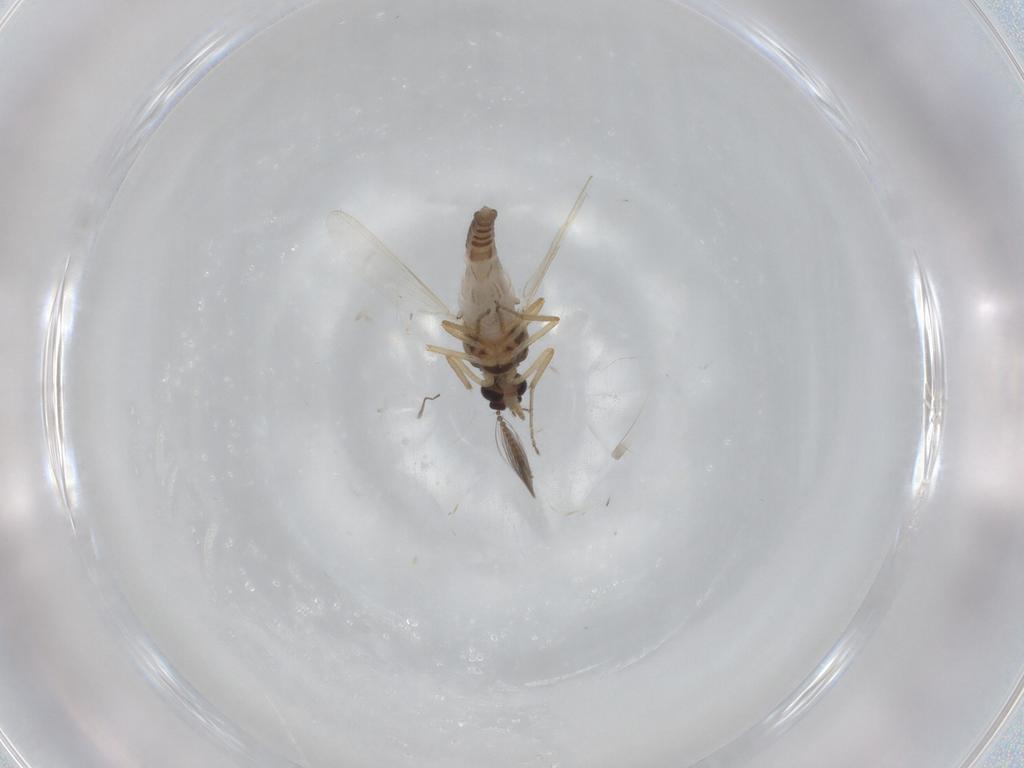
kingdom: Animalia
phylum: Arthropoda
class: Insecta
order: Diptera
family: Ceratopogonidae
